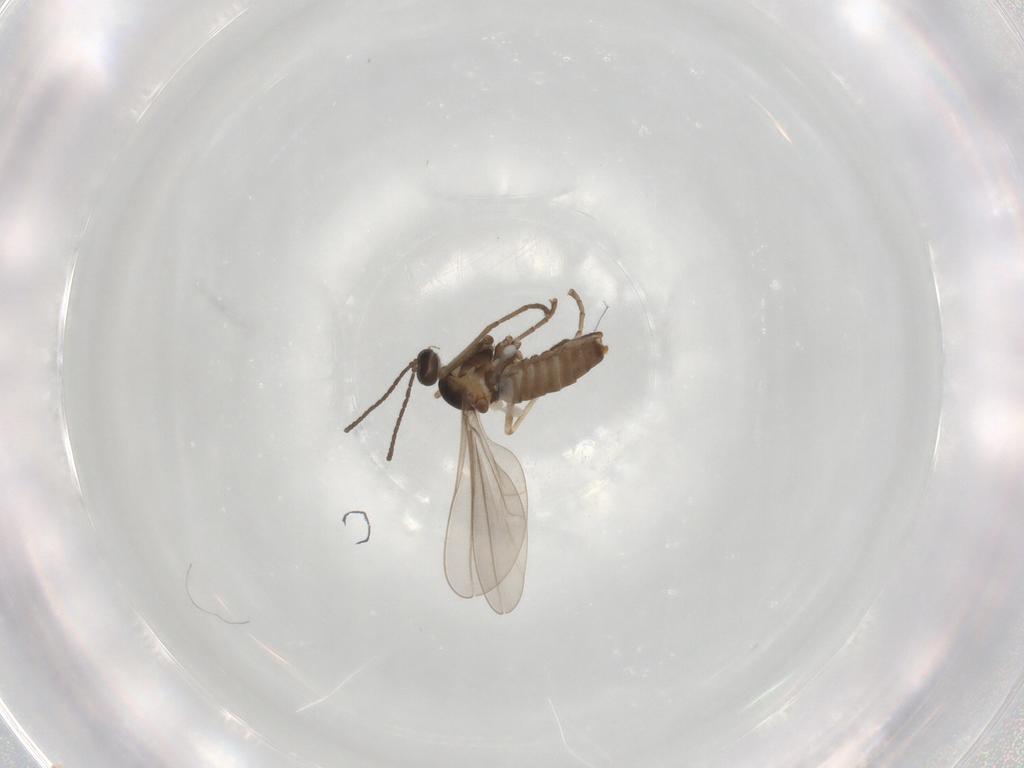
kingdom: Animalia
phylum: Arthropoda
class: Insecta
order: Diptera
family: Cecidomyiidae
